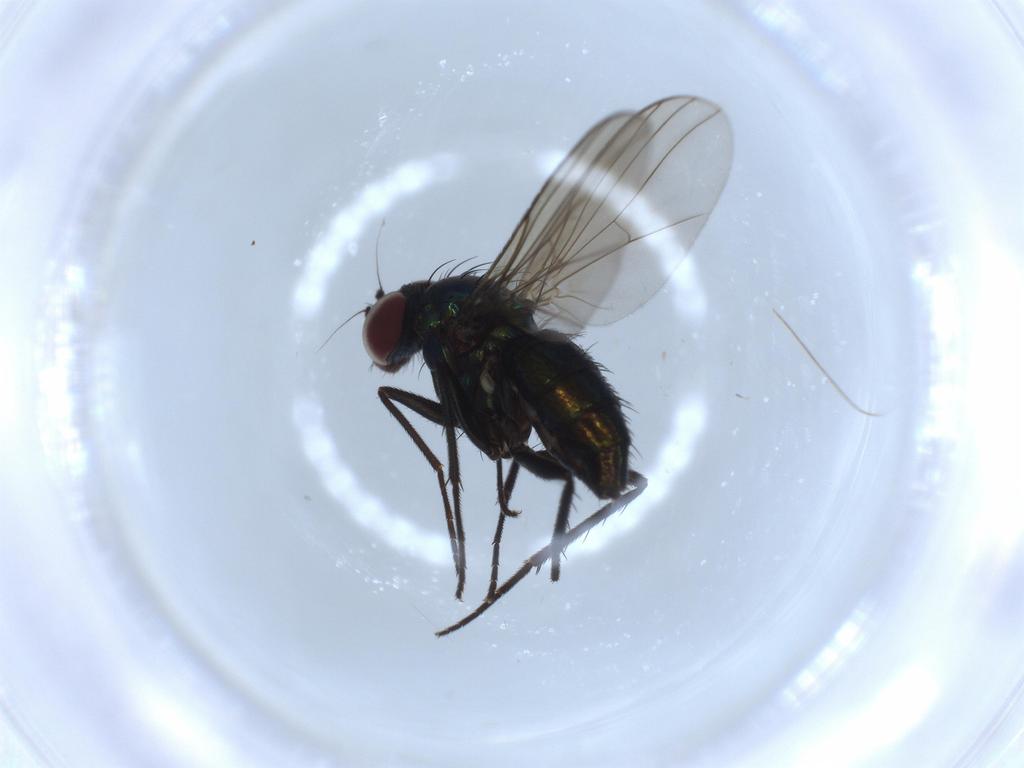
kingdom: Animalia
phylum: Arthropoda
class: Insecta
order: Diptera
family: Dolichopodidae
